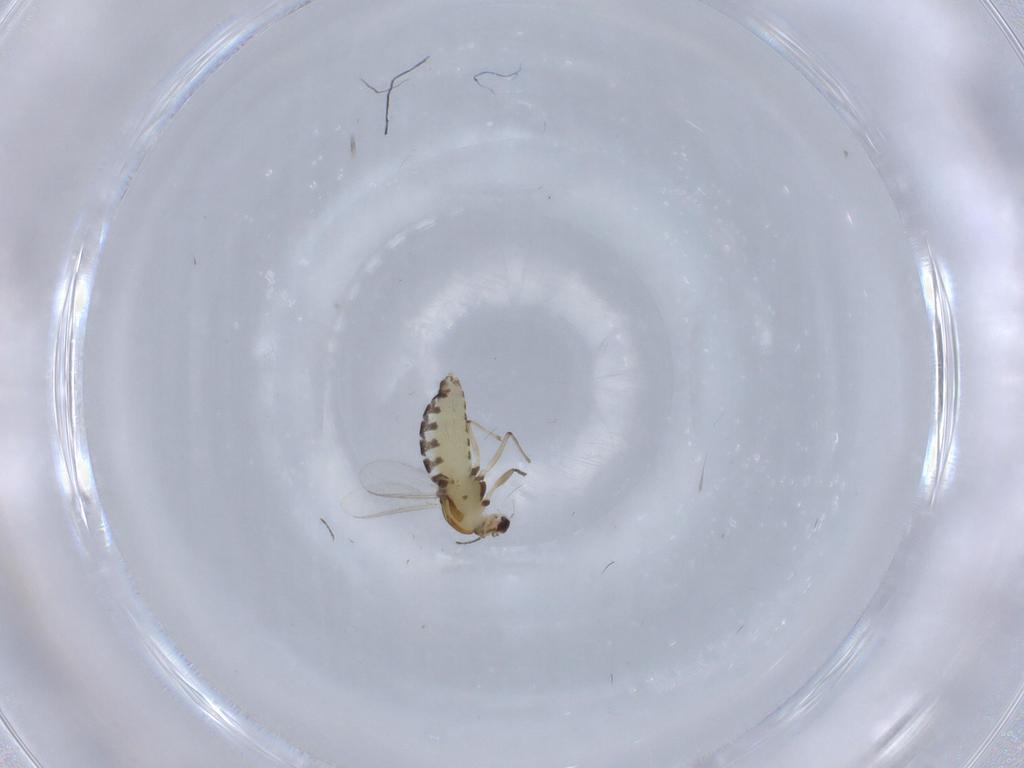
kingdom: Animalia
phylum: Arthropoda
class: Insecta
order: Diptera
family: Chironomidae
